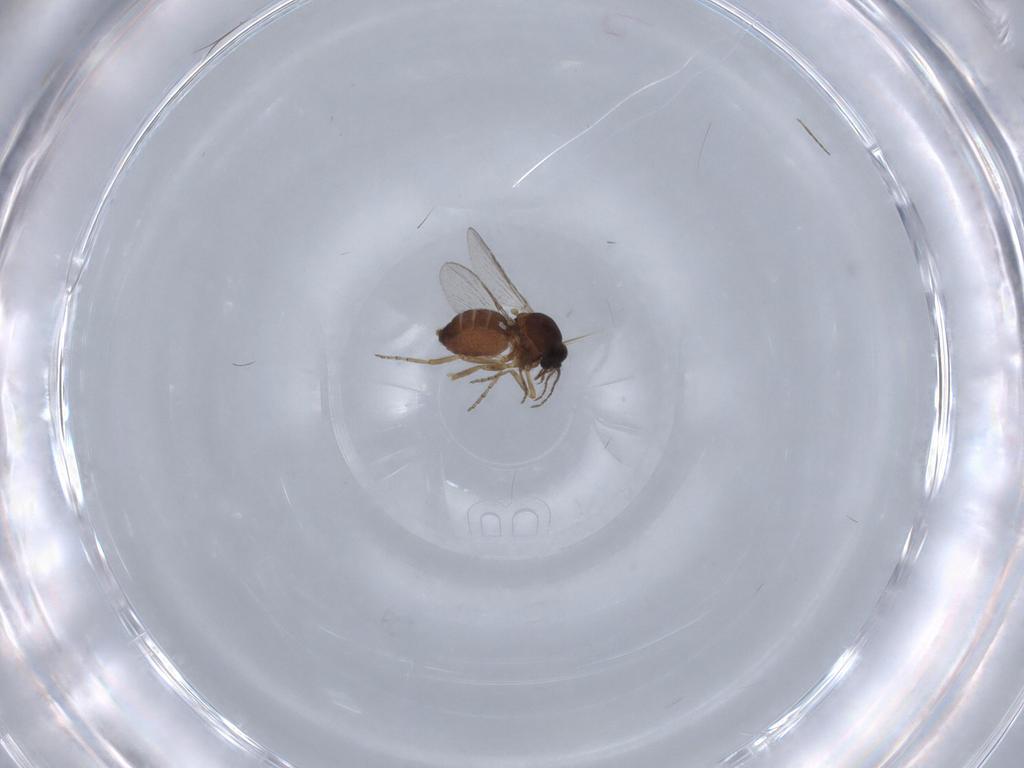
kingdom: Animalia
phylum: Arthropoda
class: Insecta
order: Diptera
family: Ceratopogonidae
